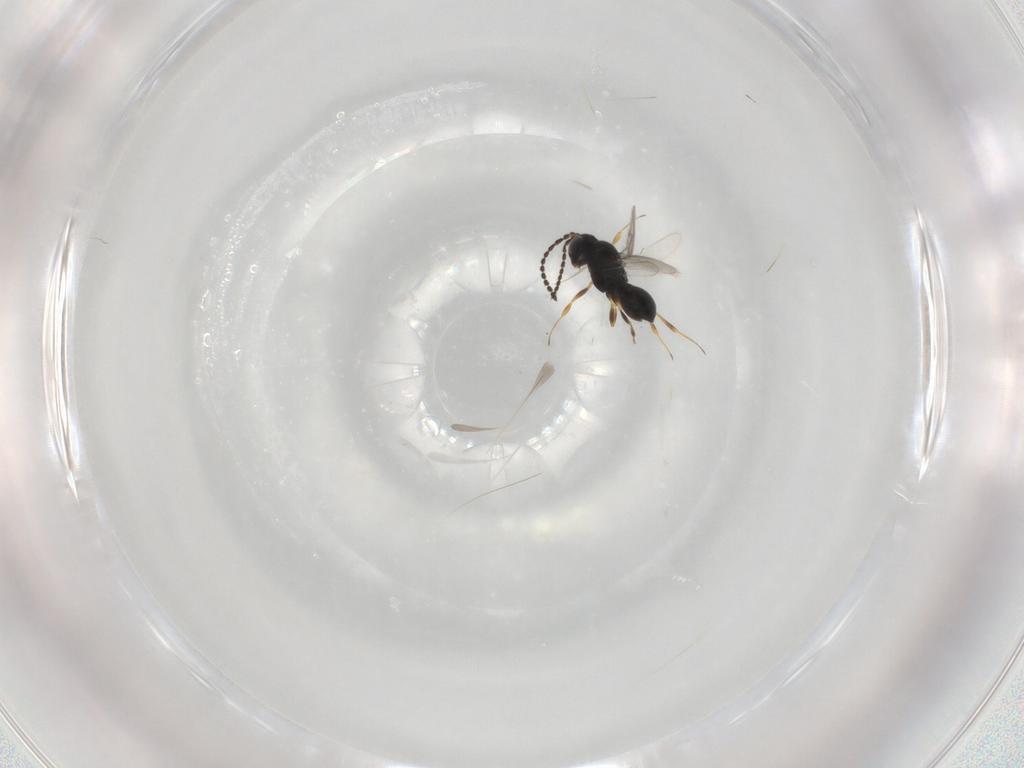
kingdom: Animalia
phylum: Arthropoda
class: Insecta
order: Hymenoptera
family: Scelionidae
